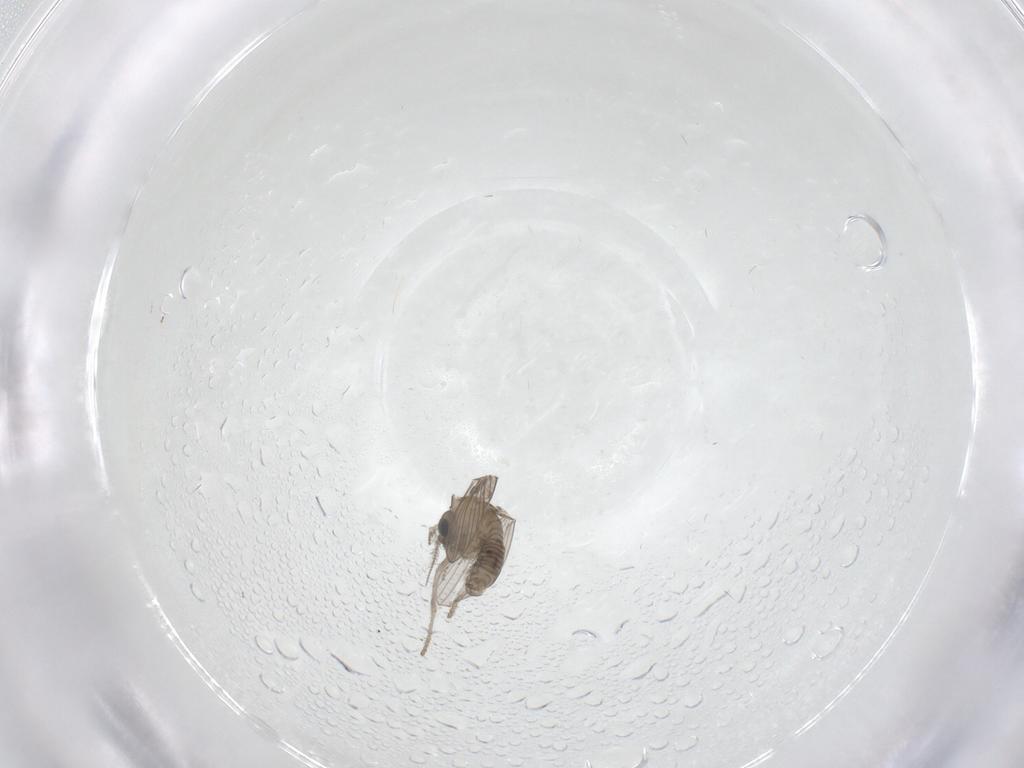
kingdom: Animalia
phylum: Arthropoda
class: Insecta
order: Diptera
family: Psychodidae
